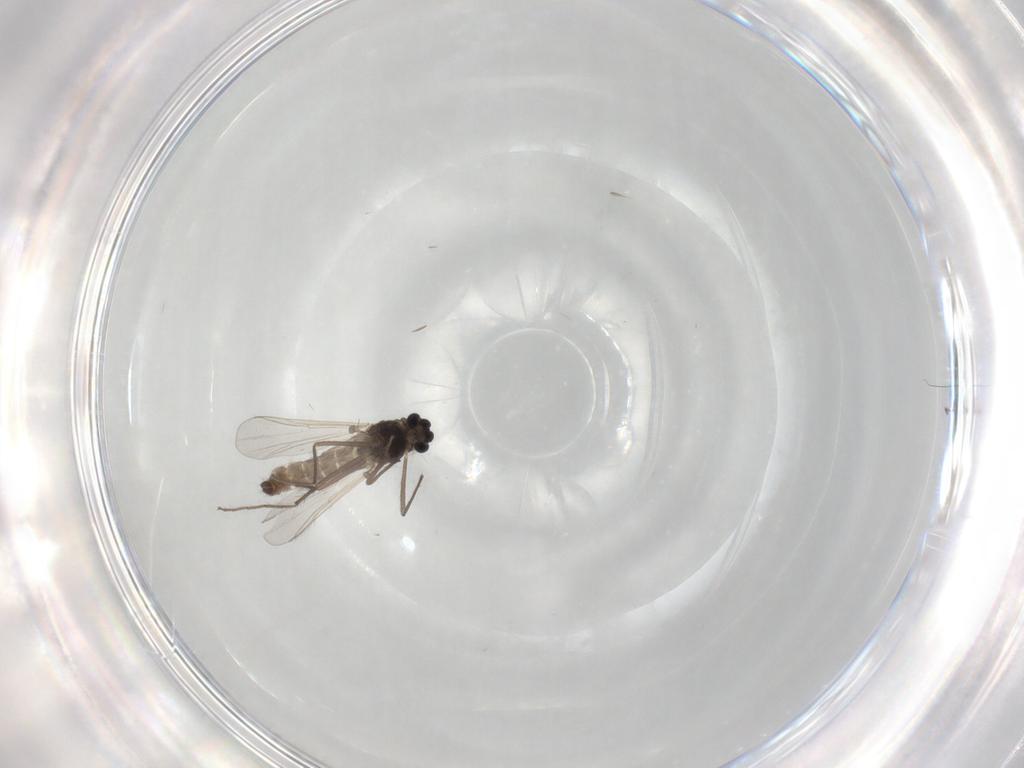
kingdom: Animalia
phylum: Arthropoda
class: Insecta
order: Diptera
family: Chironomidae
